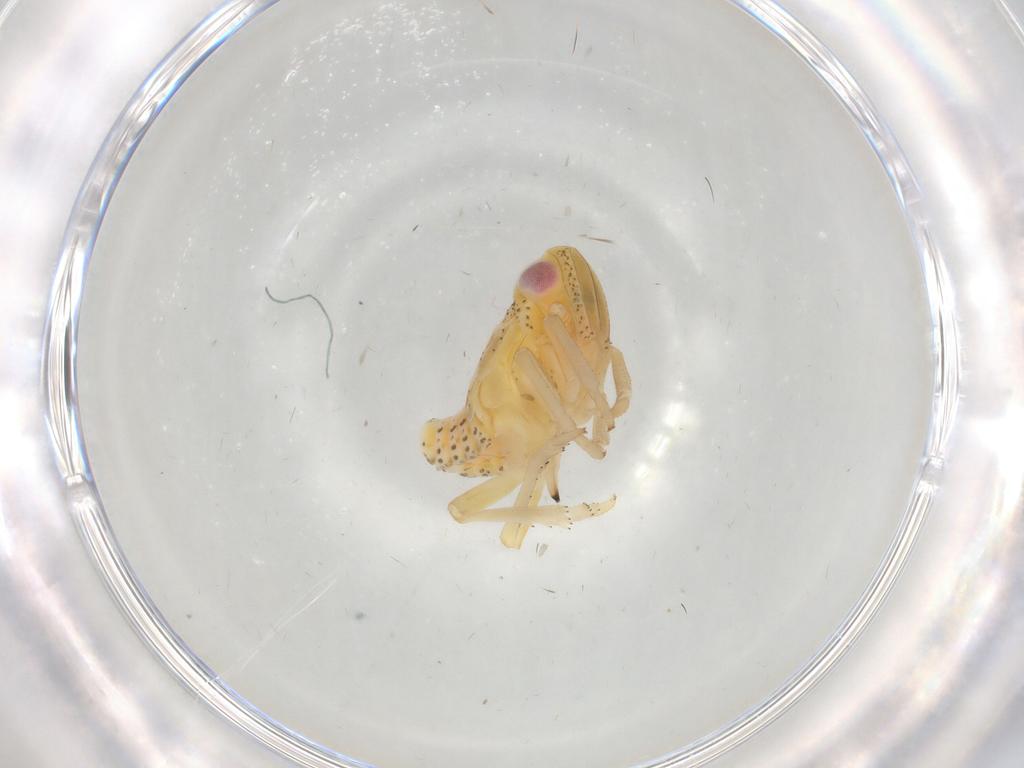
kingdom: Animalia
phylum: Arthropoda
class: Insecta
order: Hemiptera
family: Tropiduchidae
